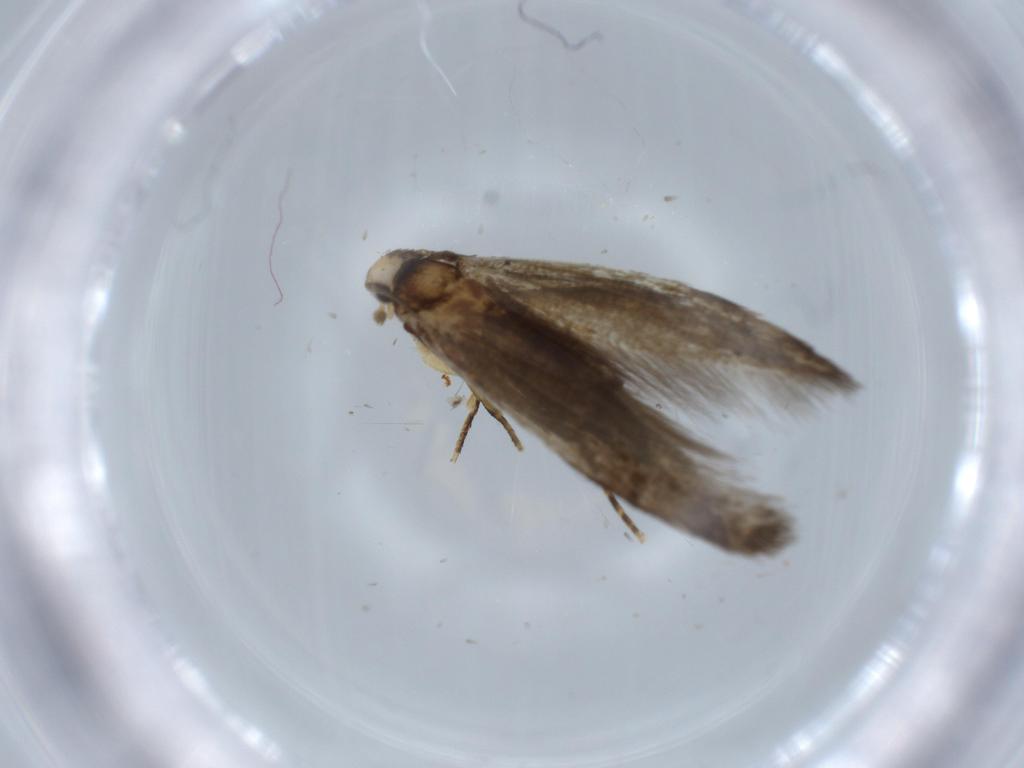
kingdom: Animalia
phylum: Arthropoda
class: Insecta
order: Lepidoptera
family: Tineidae
